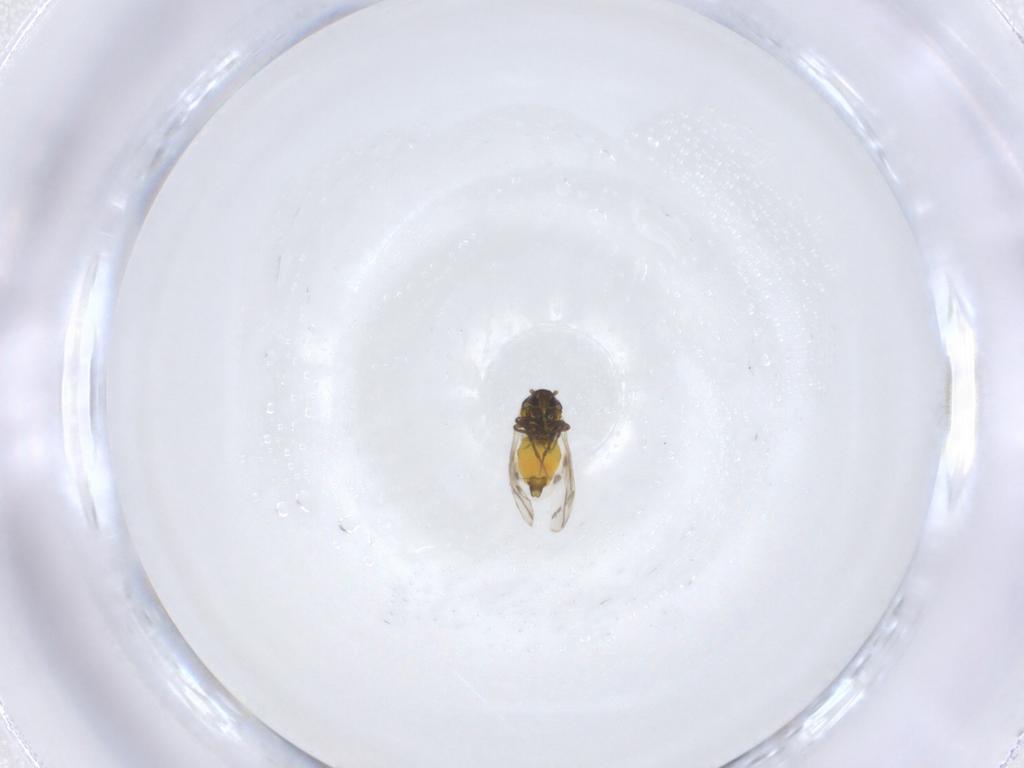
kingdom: Animalia
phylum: Arthropoda
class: Insecta
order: Hemiptera
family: Aleyrodidae
